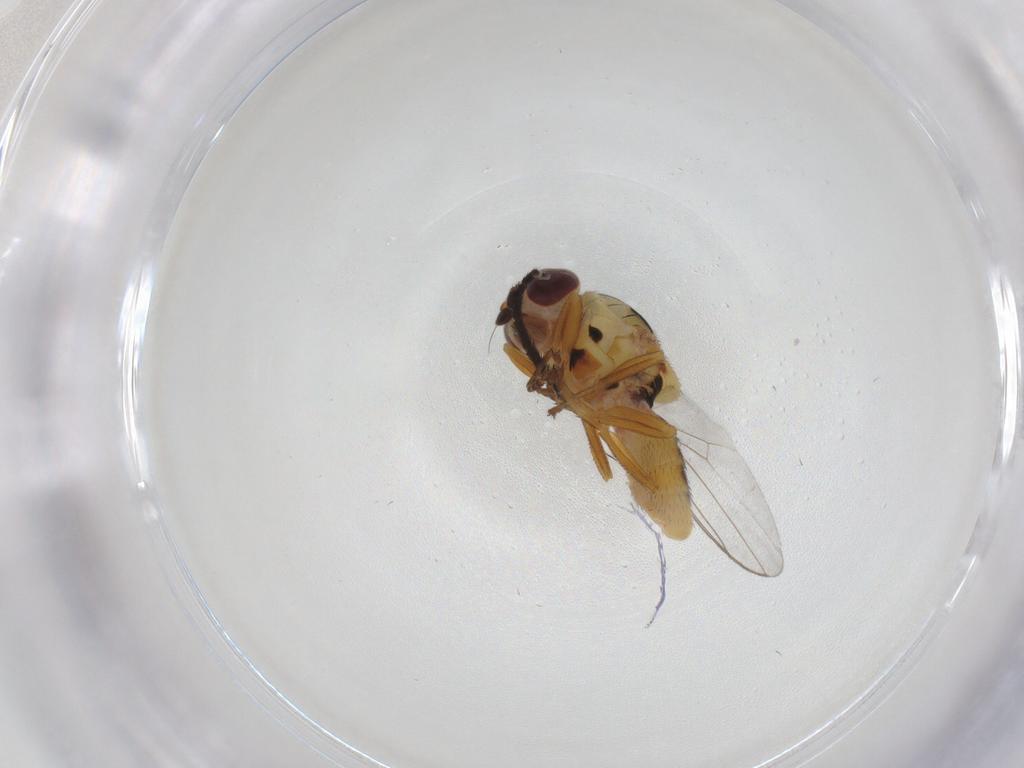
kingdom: Animalia
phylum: Arthropoda
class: Insecta
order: Diptera
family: Chloropidae
